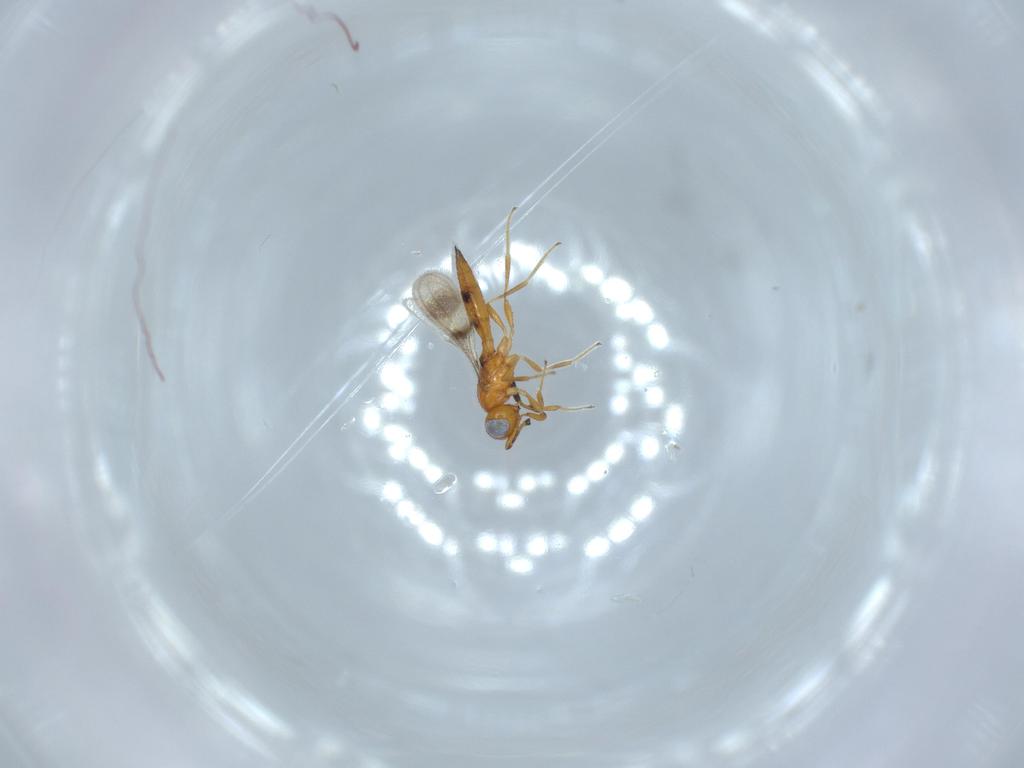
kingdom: Animalia
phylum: Arthropoda
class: Insecta
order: Hymenoptera
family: Scelionidae
